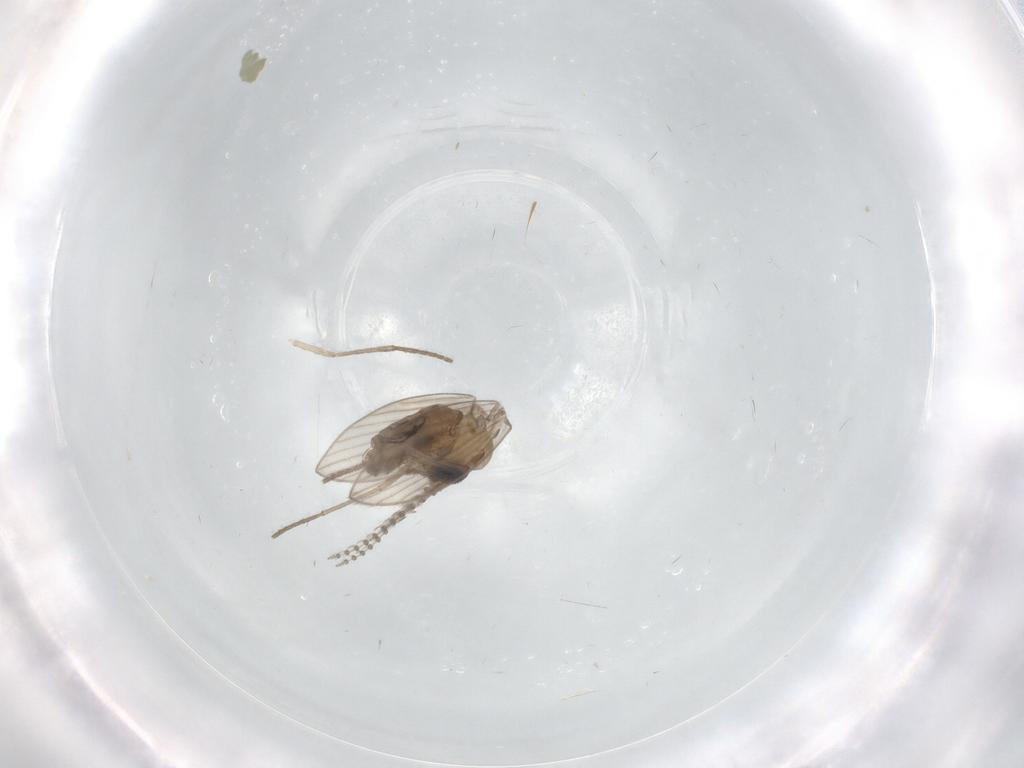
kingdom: Animalia
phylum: Arthropoda
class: Insecta
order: Diptera
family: Psychodidae
